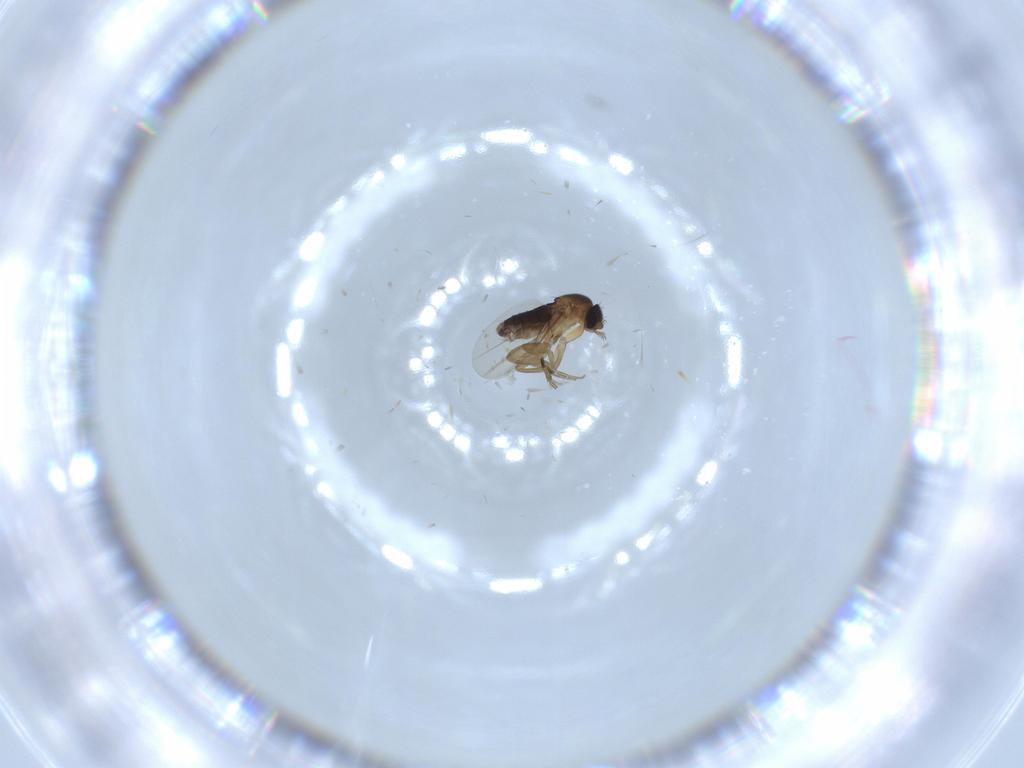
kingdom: Animalia
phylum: Arthropoda
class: Insecta
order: Diptera
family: Phoridae
